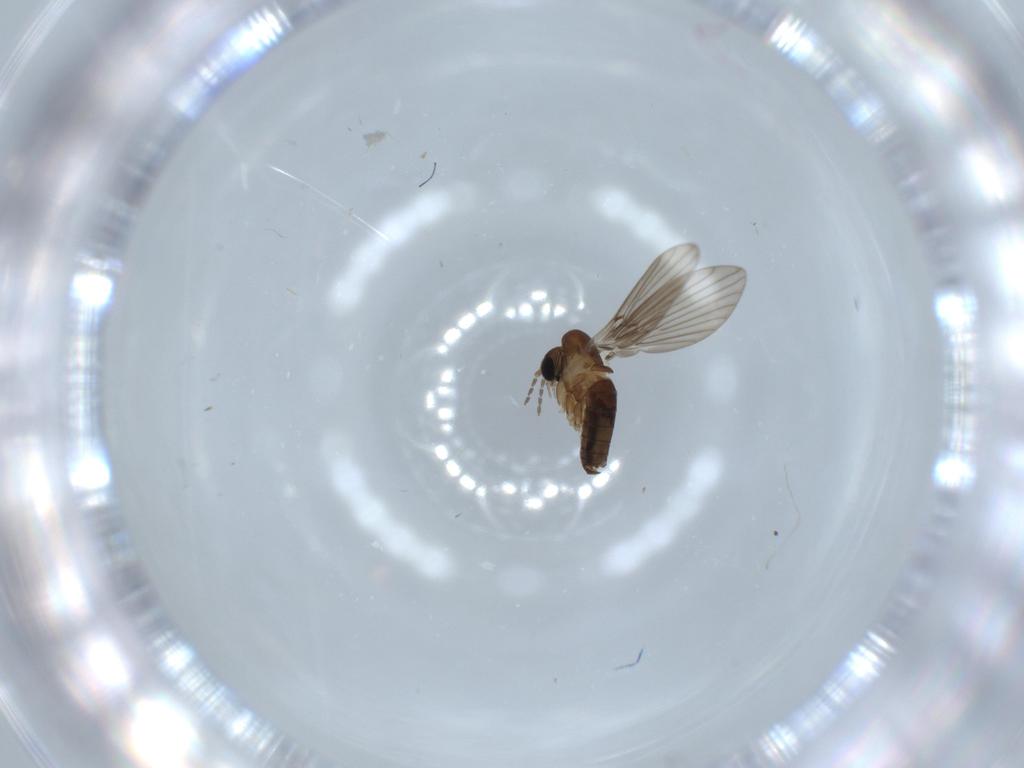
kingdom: Animalia
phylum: Arthropoda
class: Insecta
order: Diptera
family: Psychodidae
